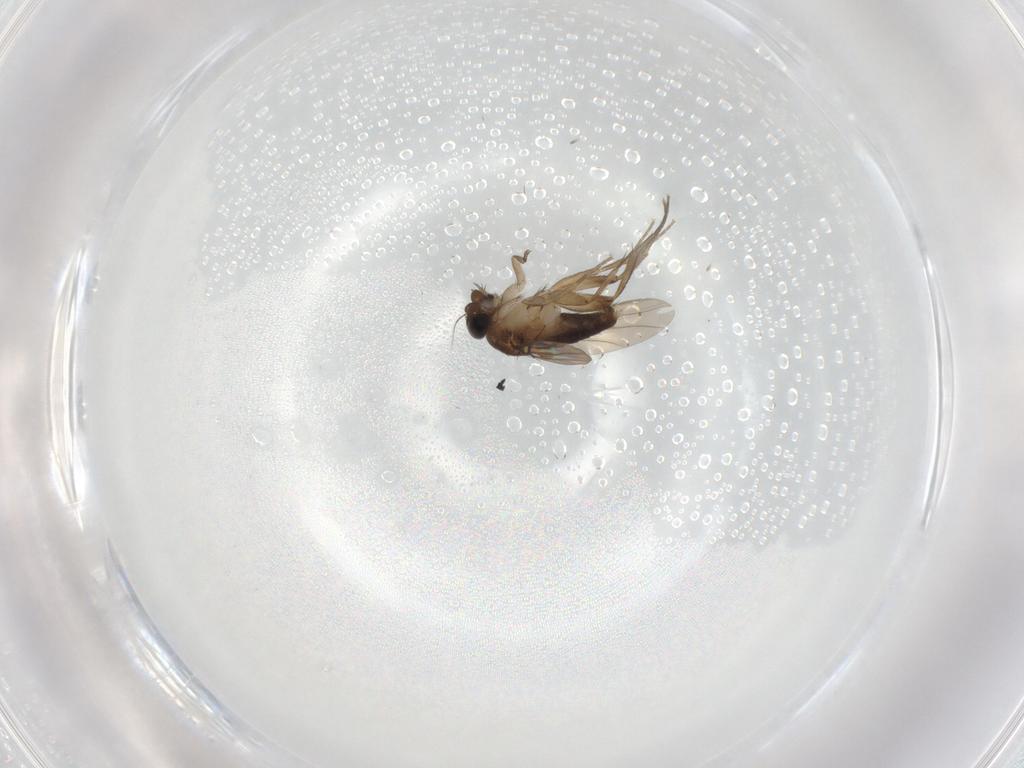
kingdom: Animalia
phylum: Arthropoda
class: Insecta
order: Diptera
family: Phoridae
